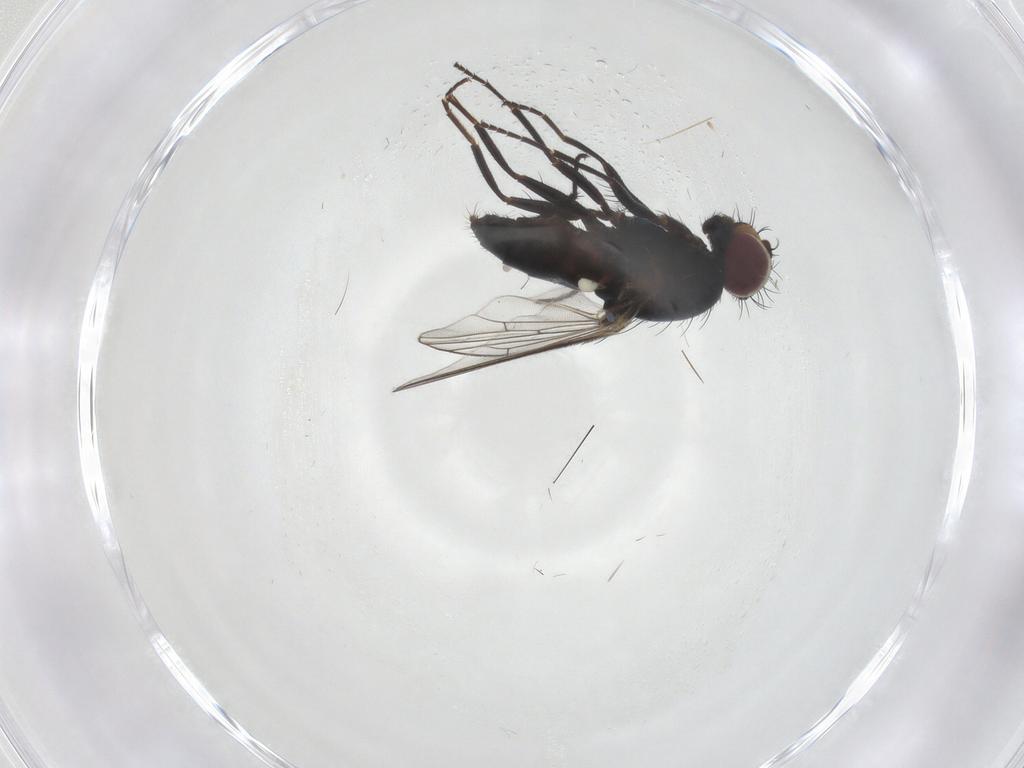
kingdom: Animalia
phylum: Arthropoda
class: Insecta
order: Diptera
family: Carnidae
